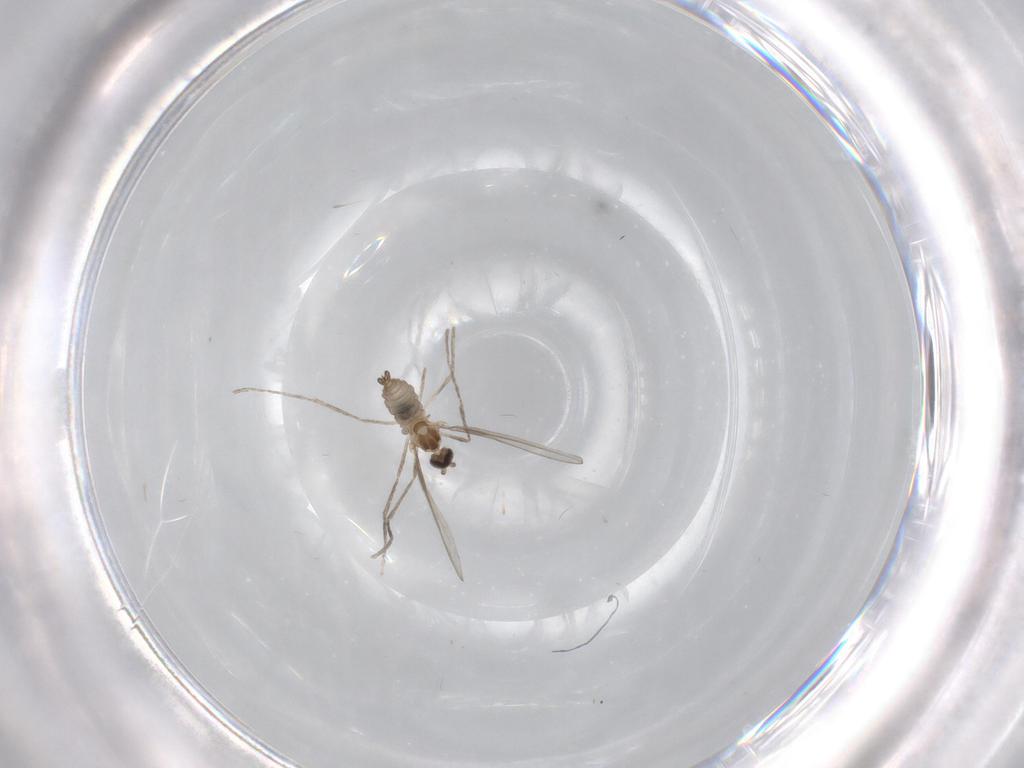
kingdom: Animalia
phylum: Arthropoda
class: Insecta
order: Diptera
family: Cecidomyiidae
